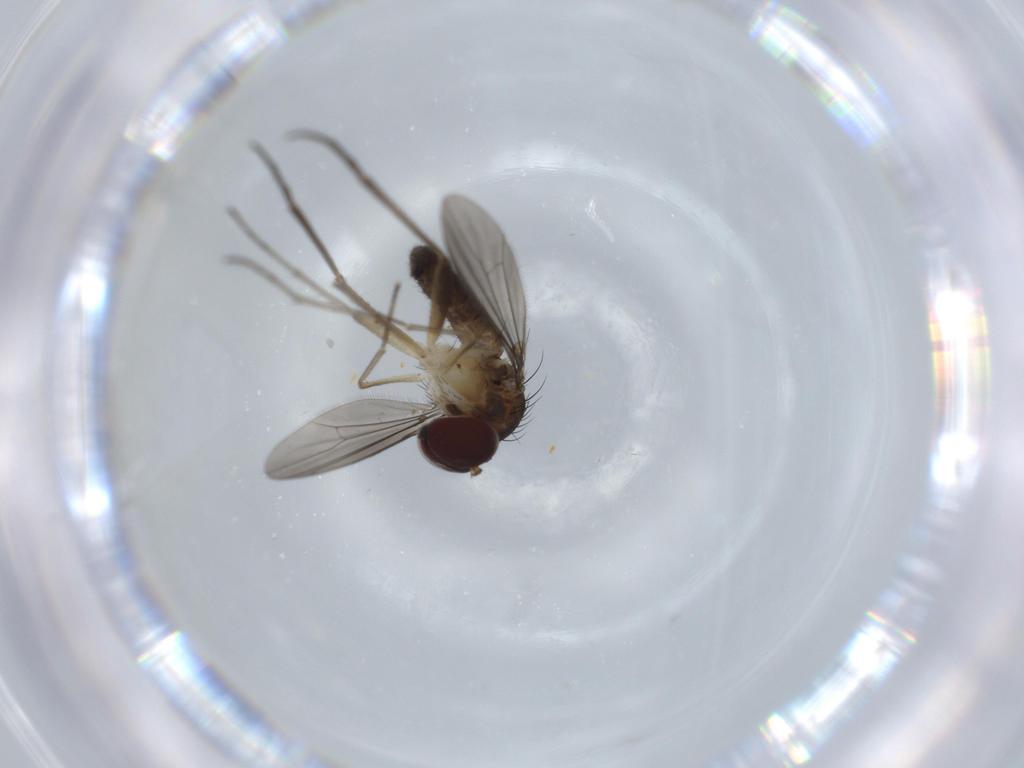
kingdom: Animalia
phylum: Arthropoda
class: Insecta
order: Diptera
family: Dolichopodidae
